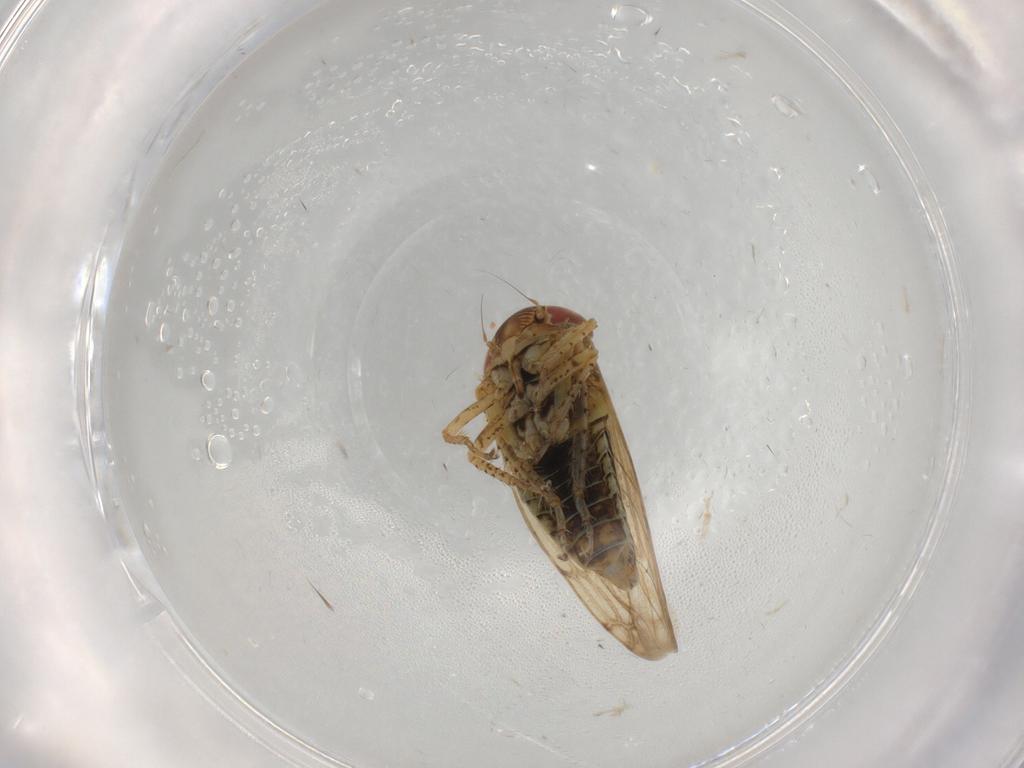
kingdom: Animalia
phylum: Arthropoda
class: Insecta
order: Hemiptera
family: Cicadellidae
